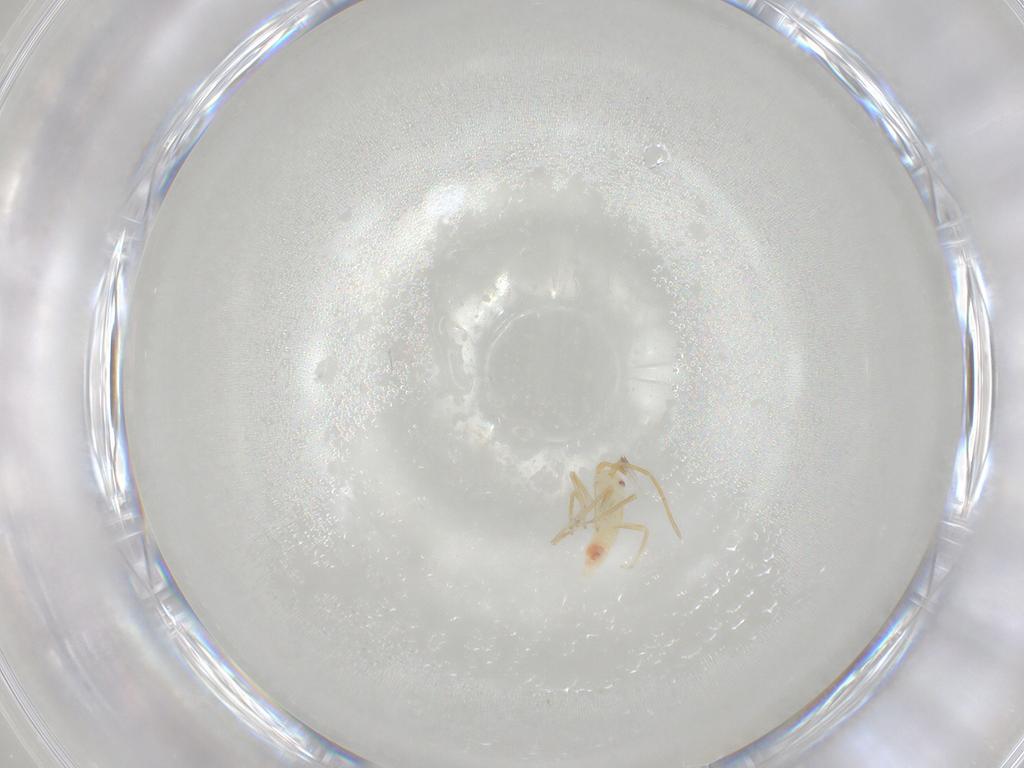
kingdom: Animalia
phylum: Arthropoda
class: Insecta
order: Hemiptera
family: Miridae
